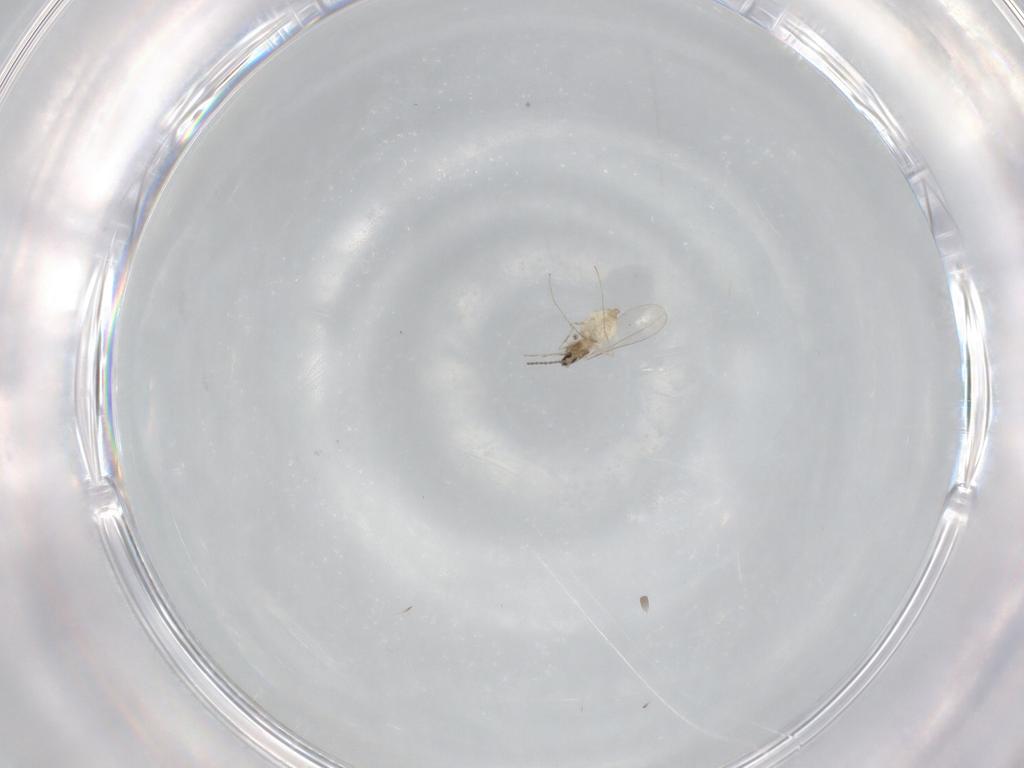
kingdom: Animalia
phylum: Arthropoda
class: Insecta
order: Diptera
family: Cecidomyiidae
